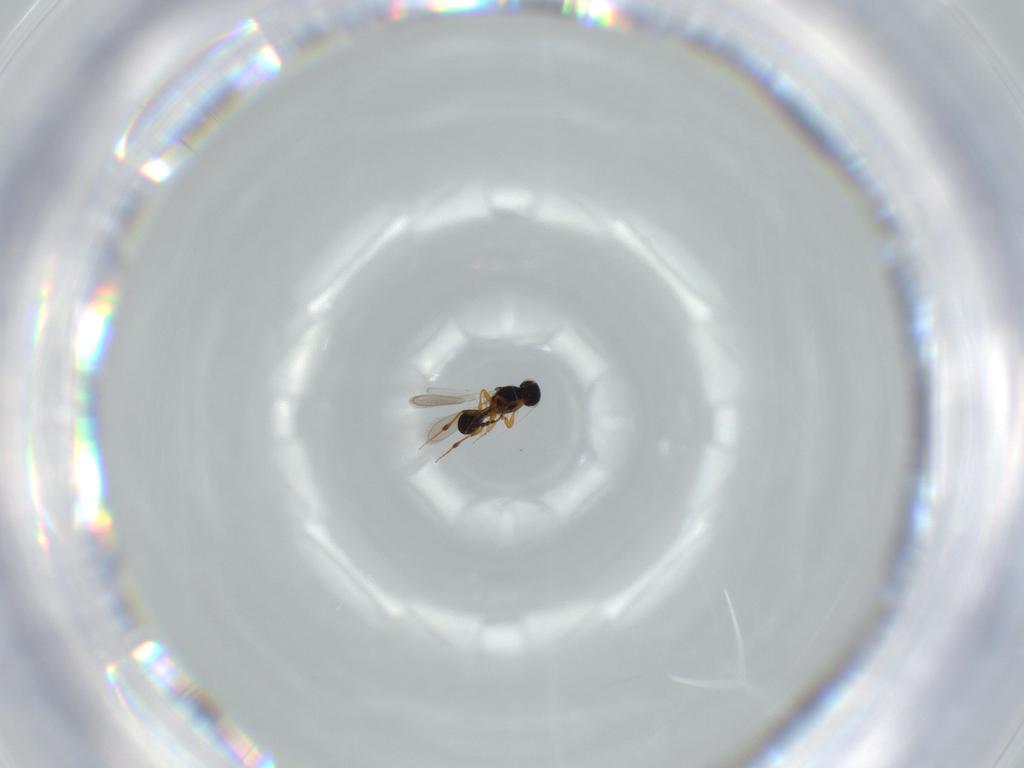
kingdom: Animalia
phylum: Arthropoda
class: Insecta
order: Hymenoptera
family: Platygastridae
